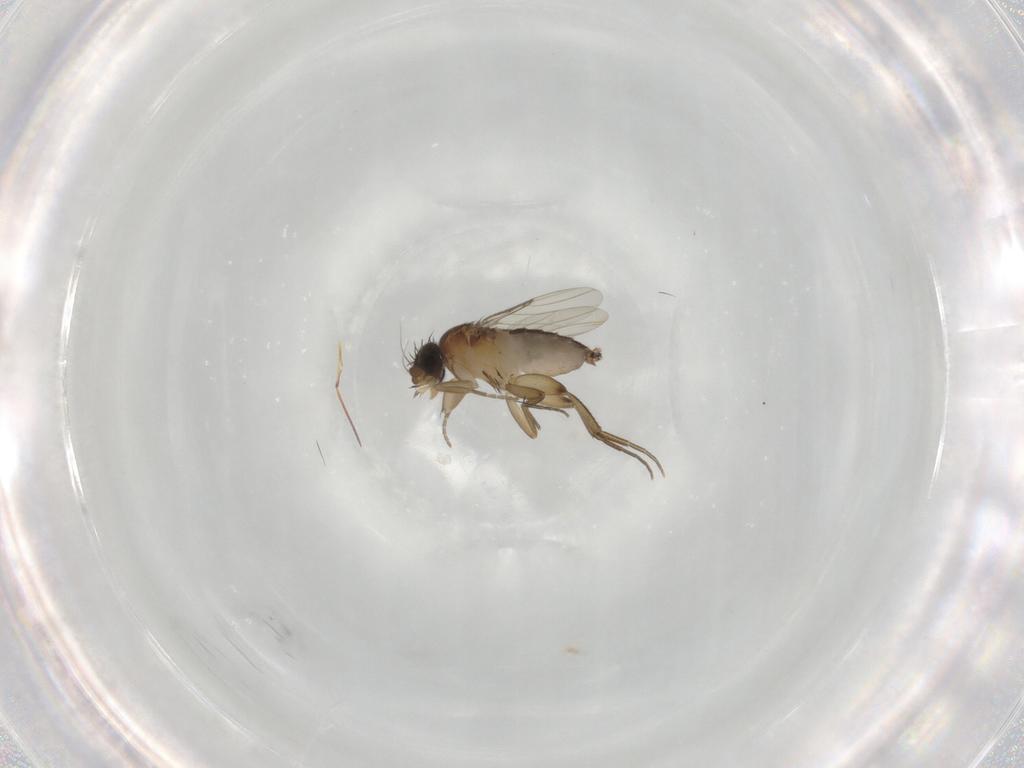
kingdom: Animalia
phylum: Arthropoda
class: Insecta
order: Diptera
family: Phoridae
